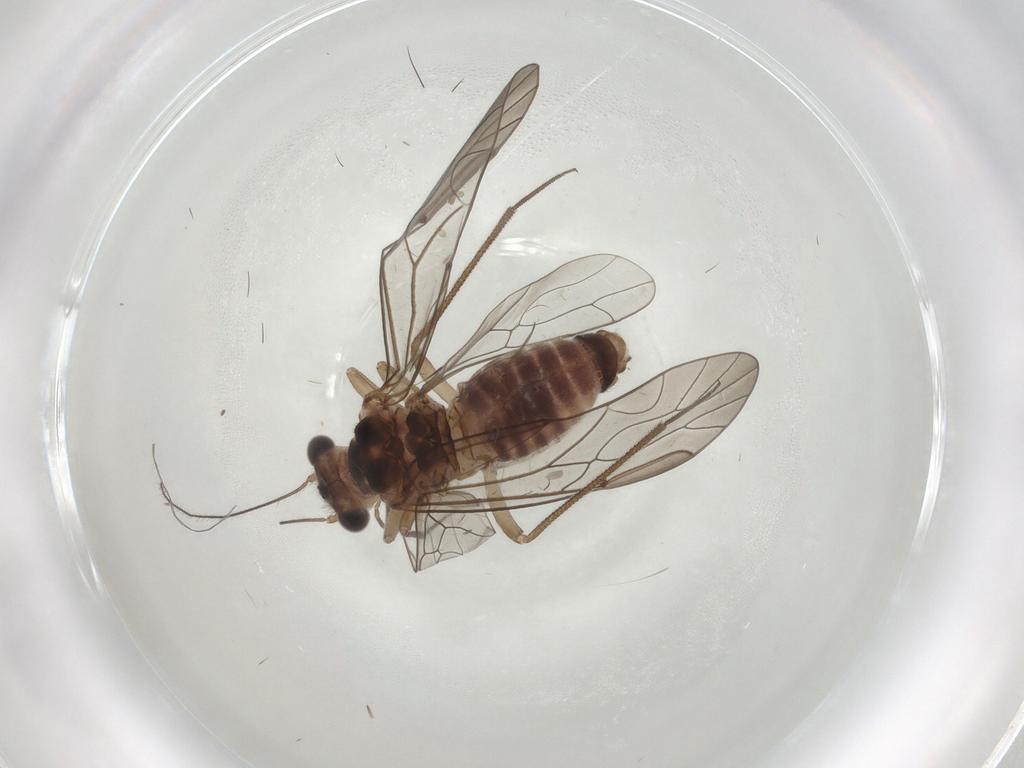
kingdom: Animalia
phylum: Arthropoda
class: Insecta
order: Psocodea
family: Lachesillidae
